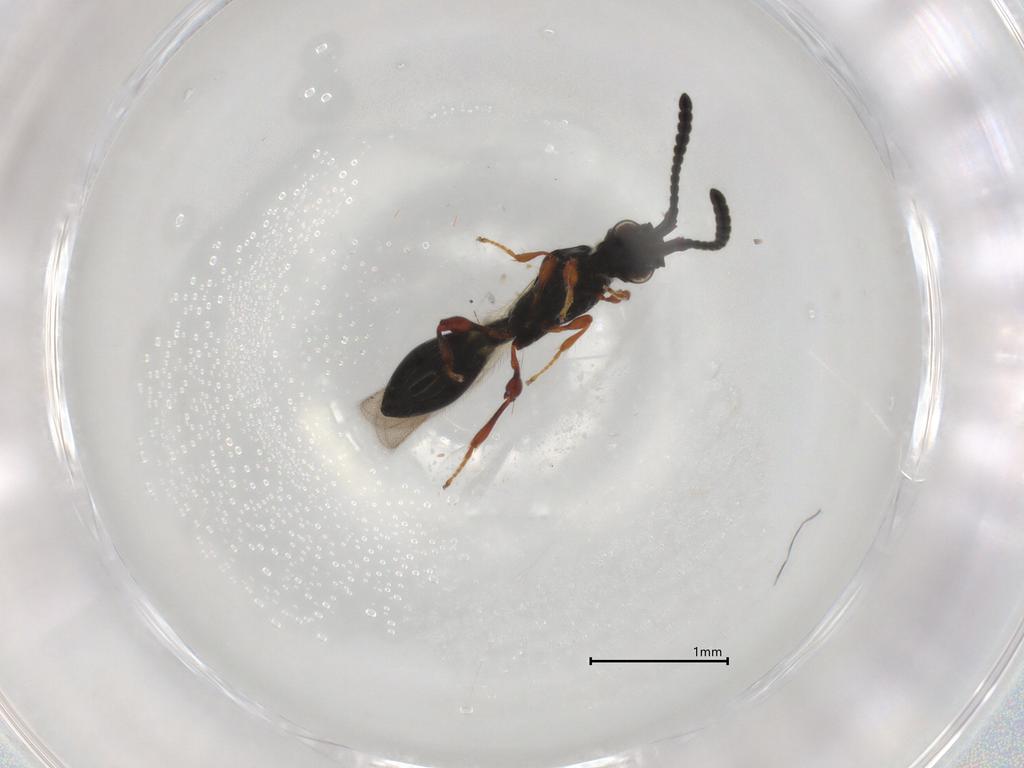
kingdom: Animalia
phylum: Arthropoda
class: Insecta
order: Hymenoptera
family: Diapriidae
